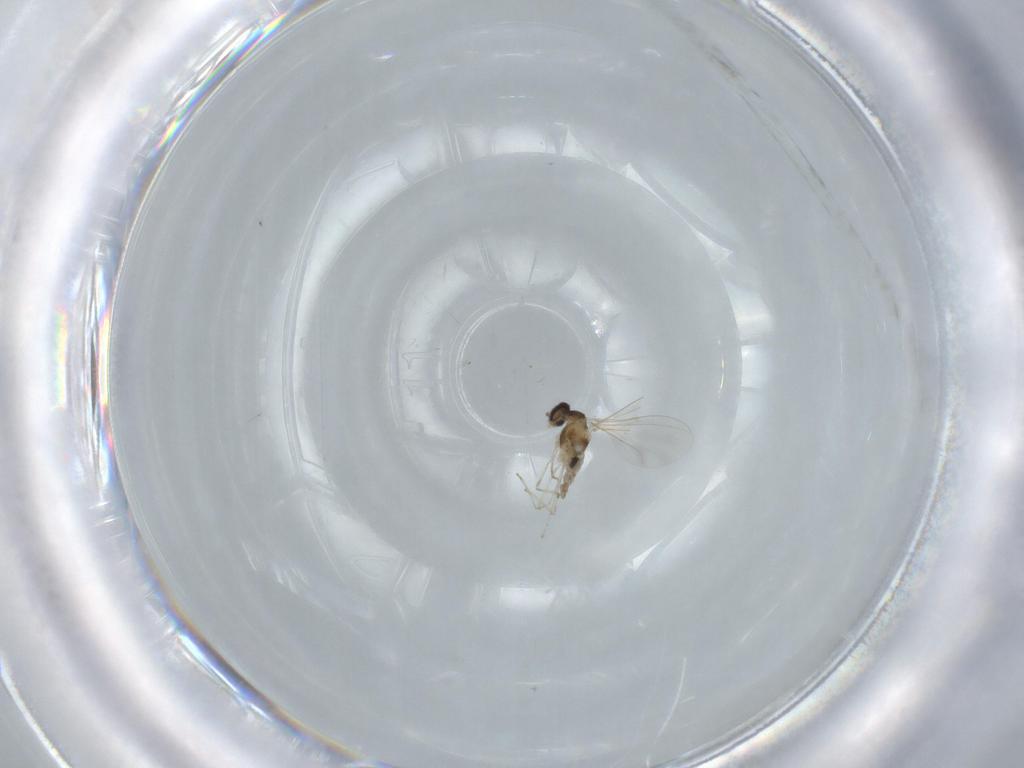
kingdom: Animalia
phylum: Arthropoda
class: Insecta
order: Diptera
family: Cecidomyiidae
